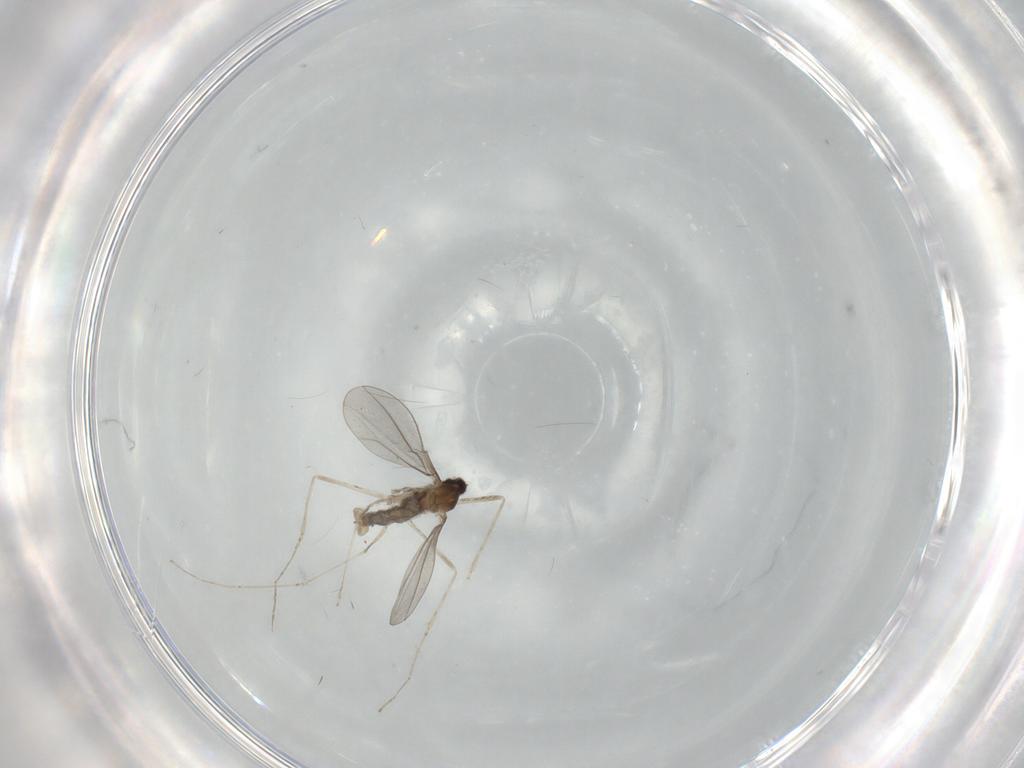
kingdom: Animalia
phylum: Arthropoda
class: Insecta
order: Diptera
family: Cecidomyiidae
